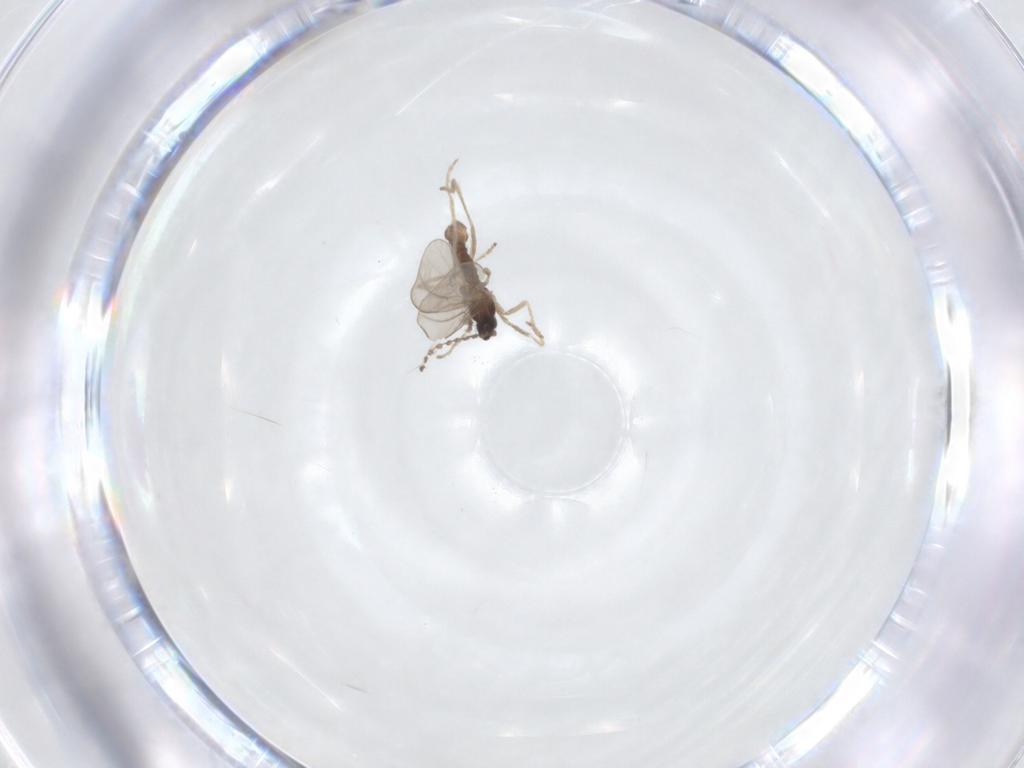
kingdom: Animalia
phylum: Arthropoda
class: Insecta
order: Diptera
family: Cecidomyiidae
